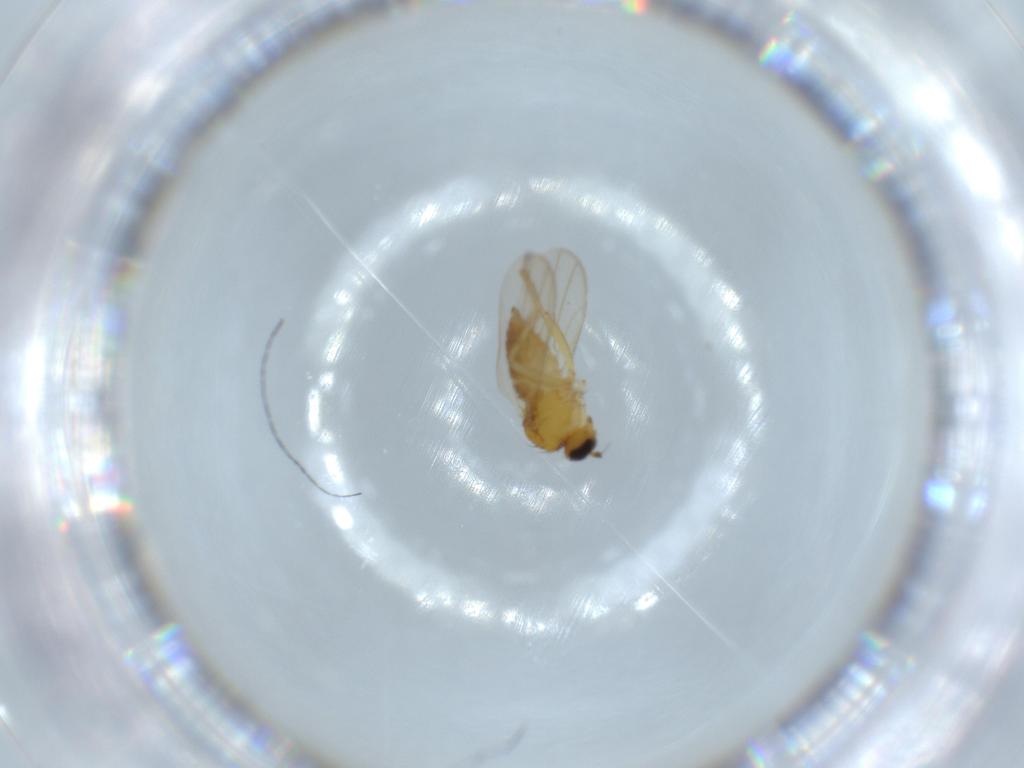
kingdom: Animalia
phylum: Arthropoda
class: Insecta
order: Diptera
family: Hybotidae
